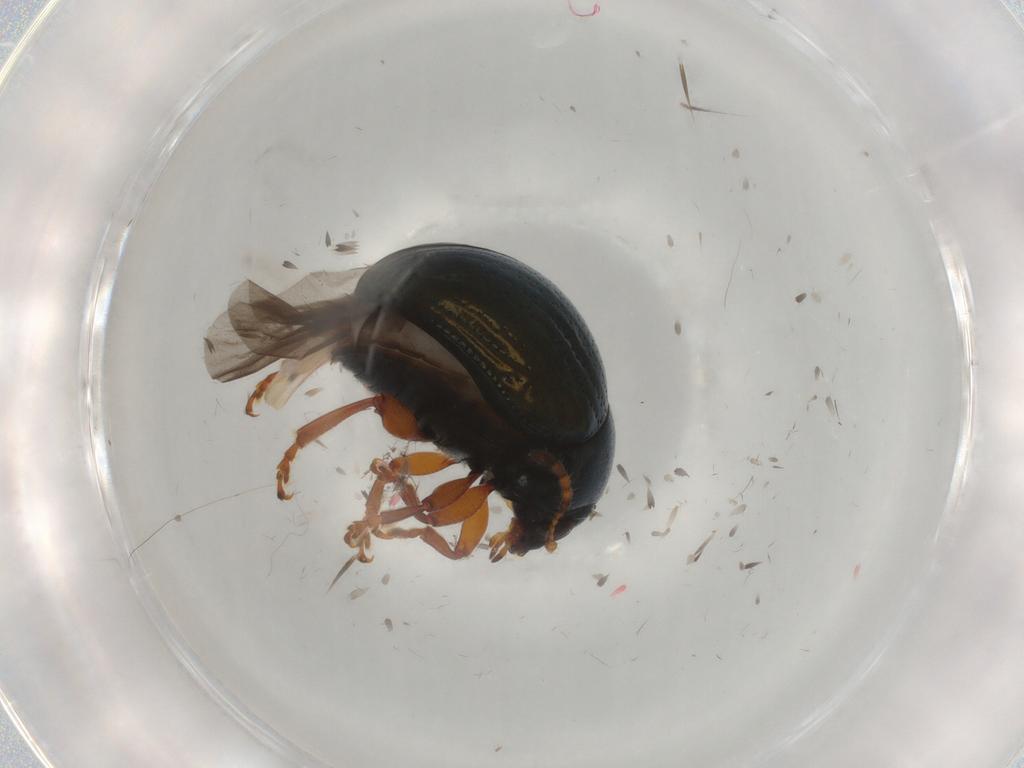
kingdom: Animalia
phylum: Arthropoda
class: Insecta
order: Coleoptera
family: Chrysomelidae
